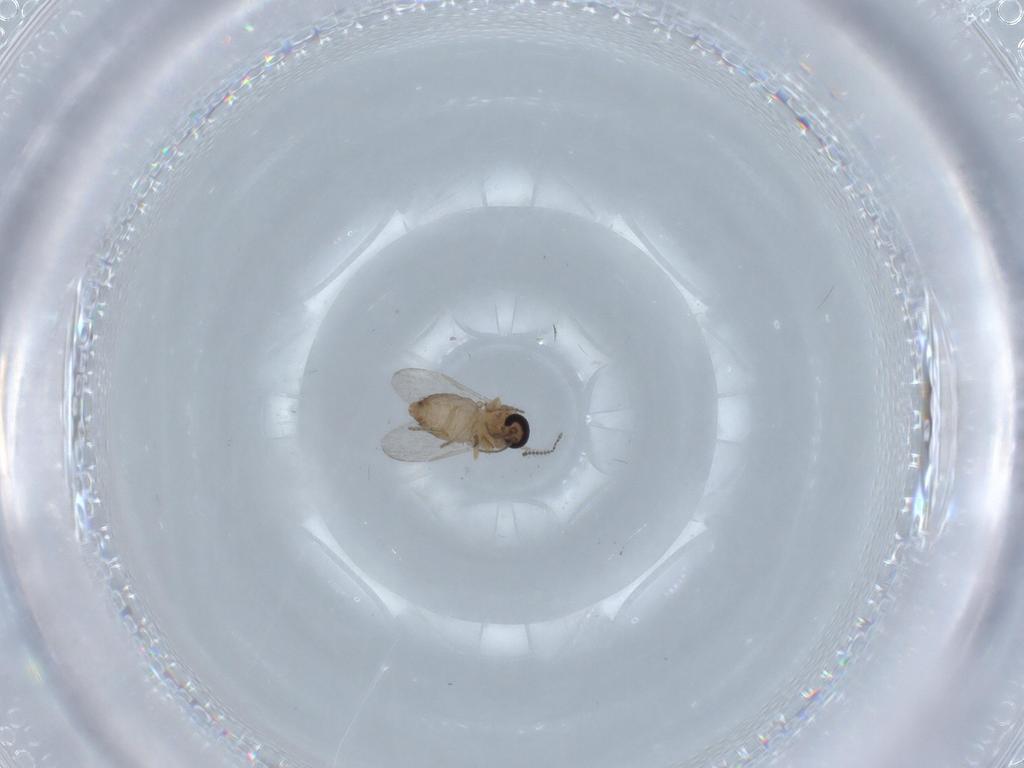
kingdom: Animalia
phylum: Arthropoda
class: Insecta
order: Diptera
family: Ceratopogonidae
